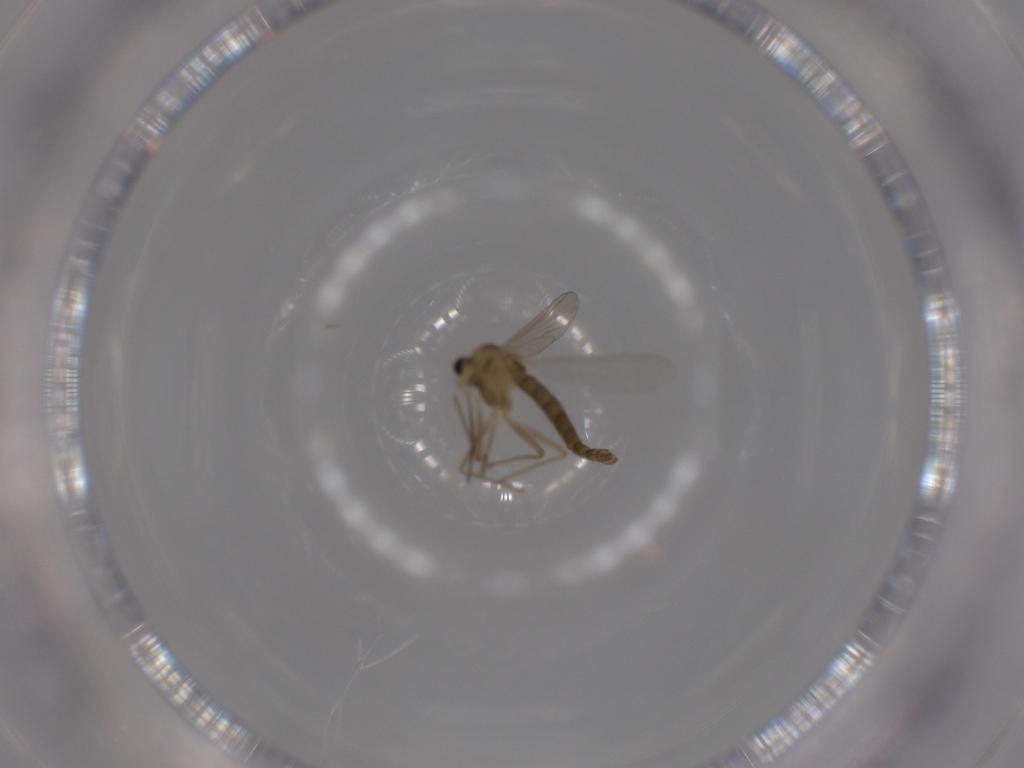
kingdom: Animalia
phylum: Arthropoda
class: Insecta
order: Diptera
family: Chironomidae
